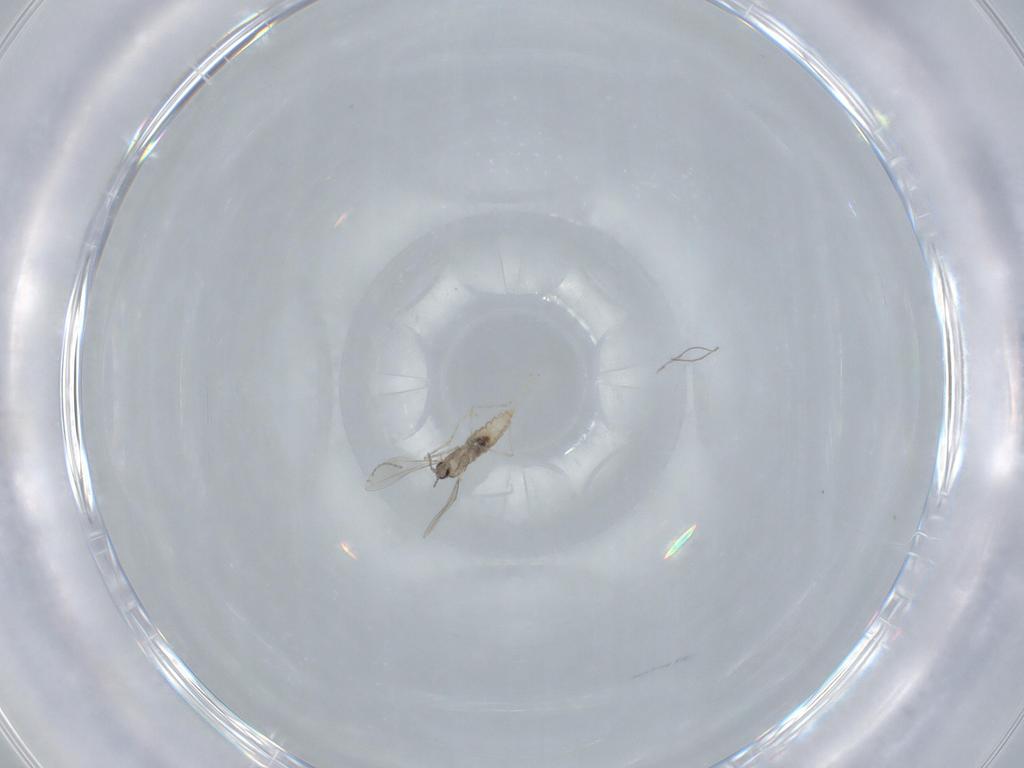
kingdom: Animalia
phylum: Arthropoda
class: Insecta
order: Diptera
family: Cecidomyiidae
